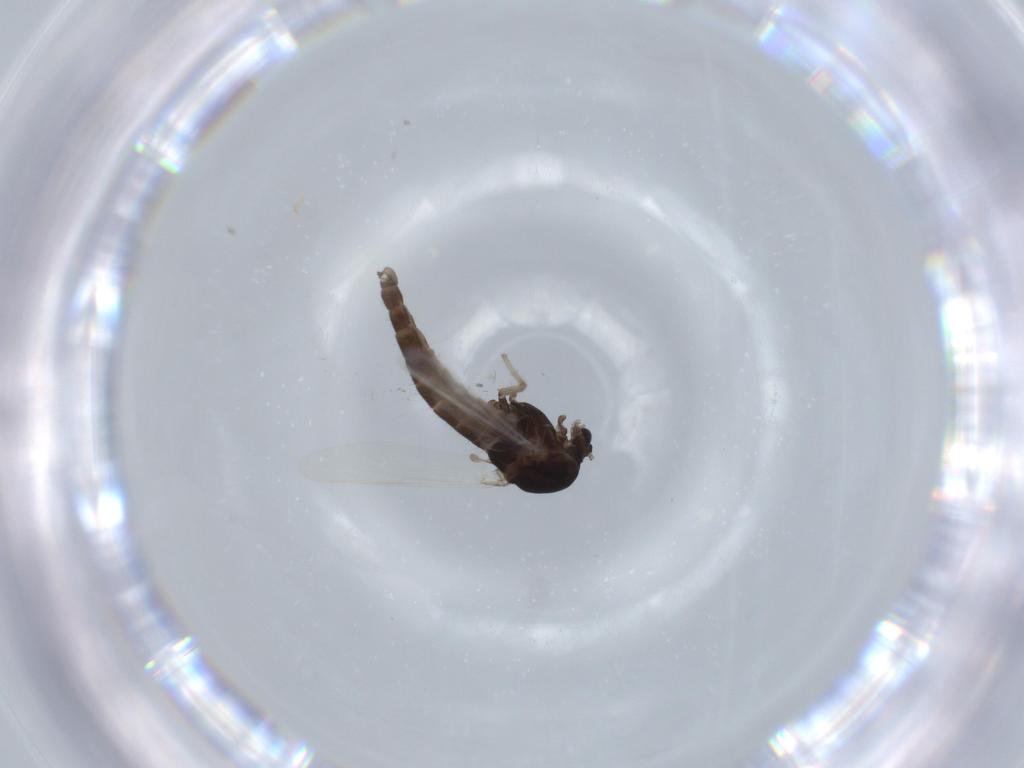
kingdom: Animalia
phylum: Arthropoda
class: Insecta
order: Diptera
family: Cecidomyiidae
